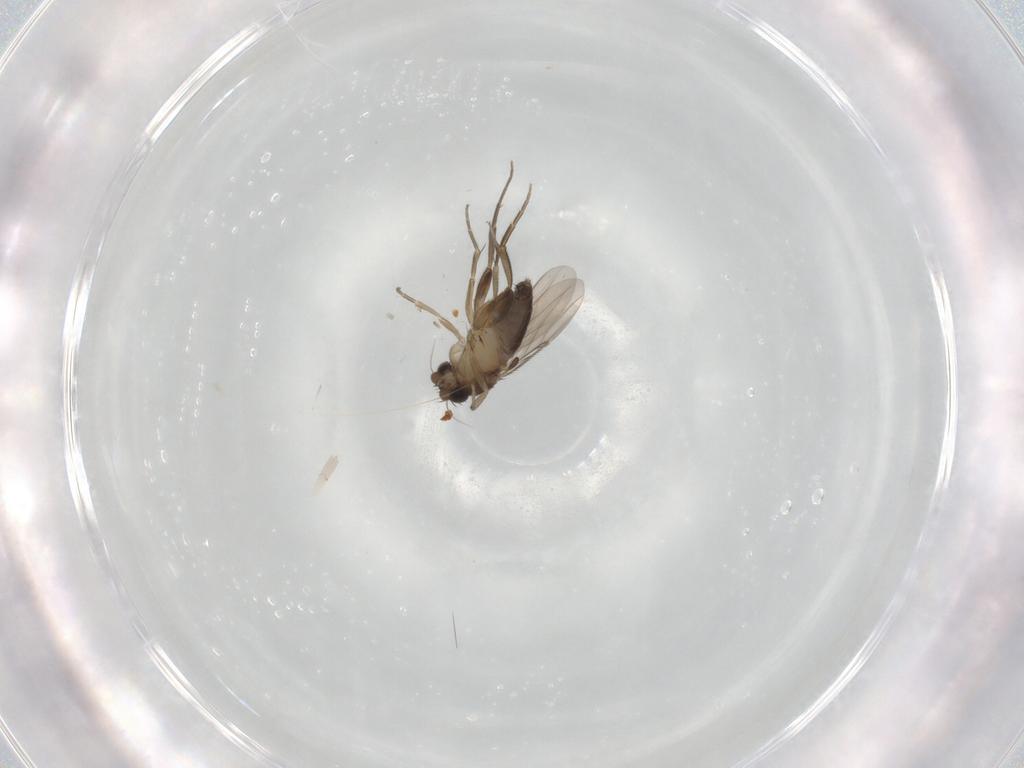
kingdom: Animalia
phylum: Arthropoda
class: Insecta
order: Diptera
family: Phoridae
